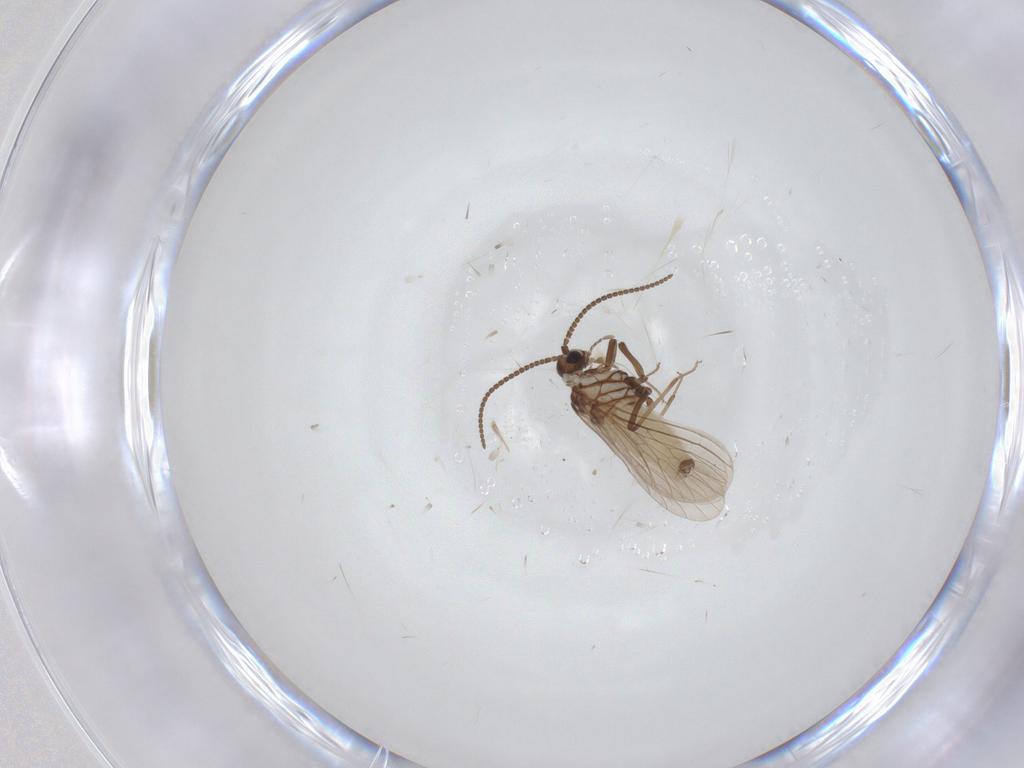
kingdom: Animalia
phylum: Arthropoda
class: Insecta
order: Neuroptera
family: Coniopterygidae
